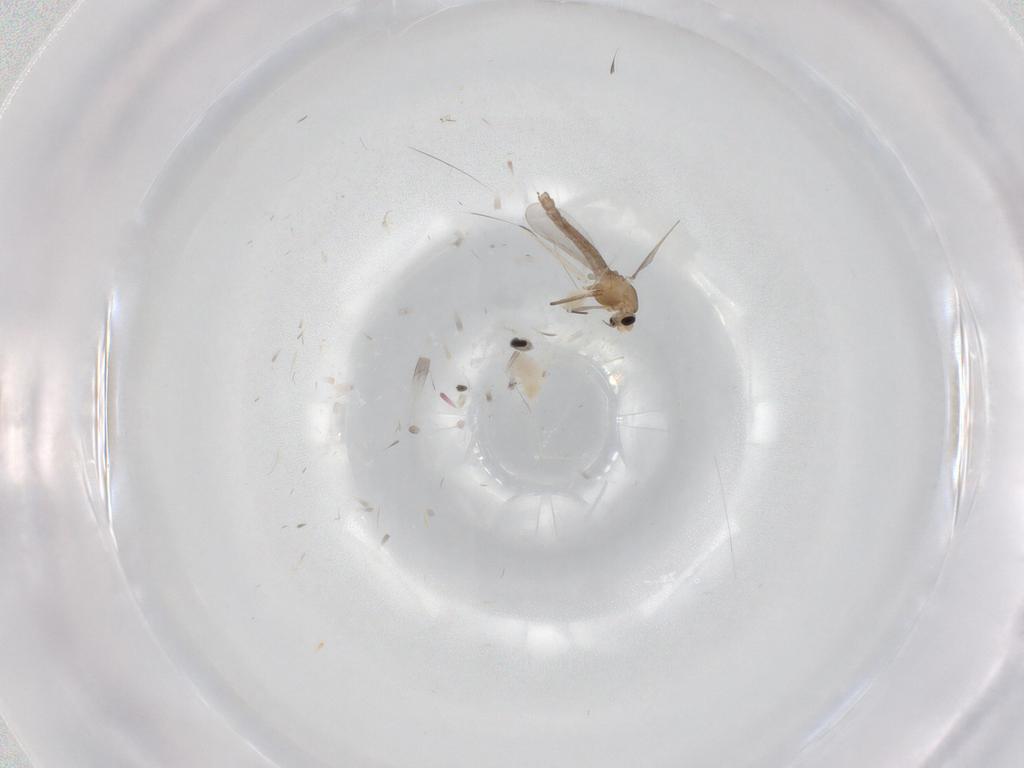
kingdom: Animalia
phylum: Arthropoda
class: Insecta
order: Diptera
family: Chironomidae
